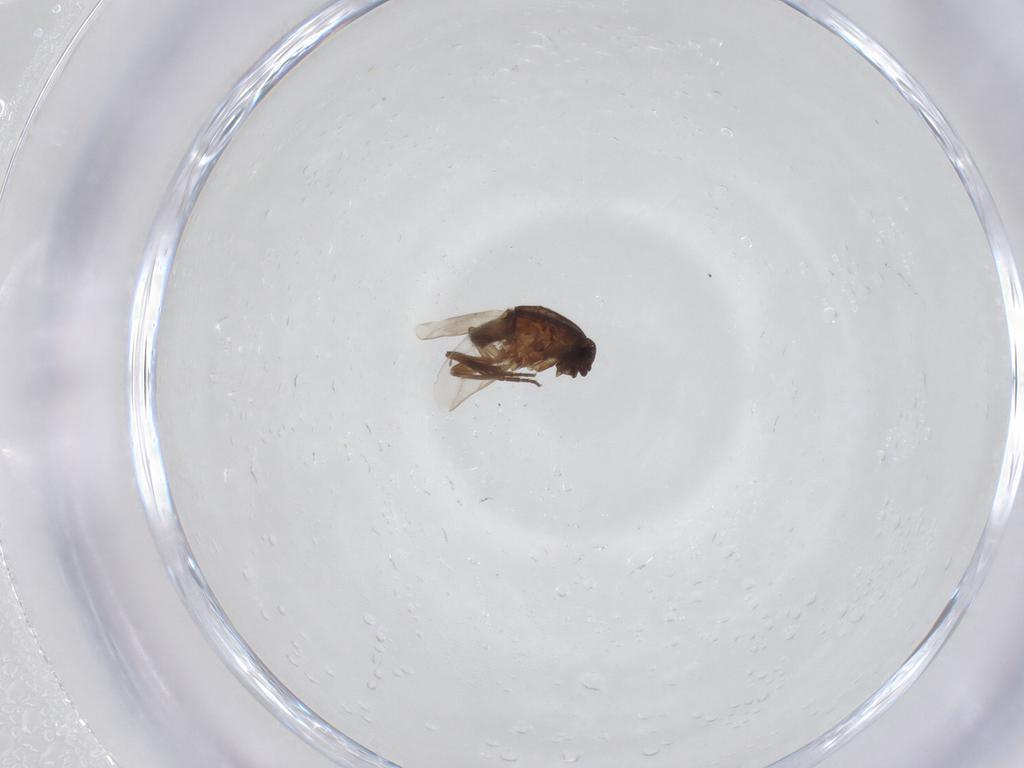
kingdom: Animalia
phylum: Arthropoda
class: Insecta
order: Diptera
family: Sphaeroceridae
